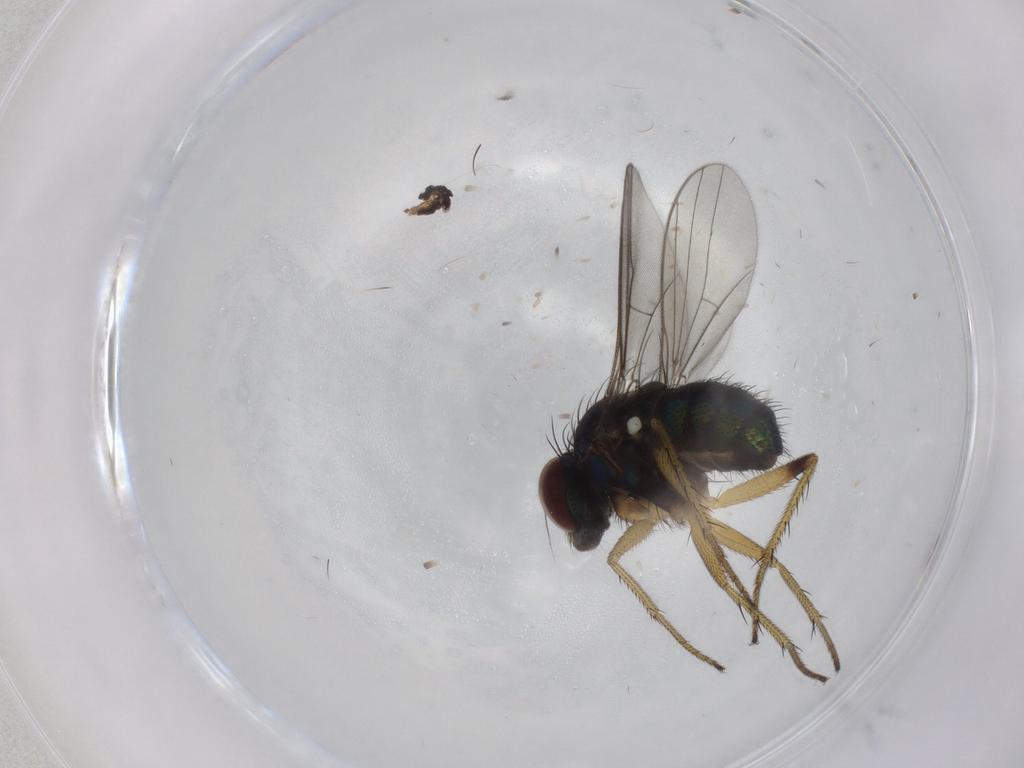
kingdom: Animalia
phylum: Arthropoda
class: Insecta
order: Diptera
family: Dolichopodidae
